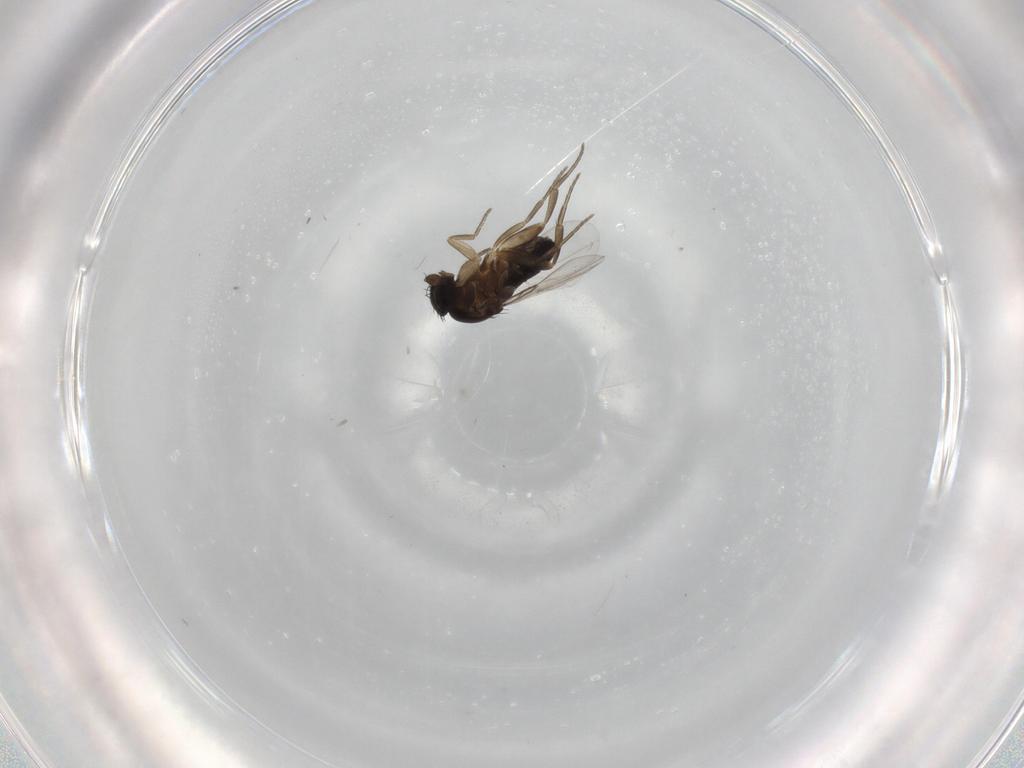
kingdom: Animalia
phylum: Arthropoda
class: Insecta
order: Diptera
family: Phoridae
